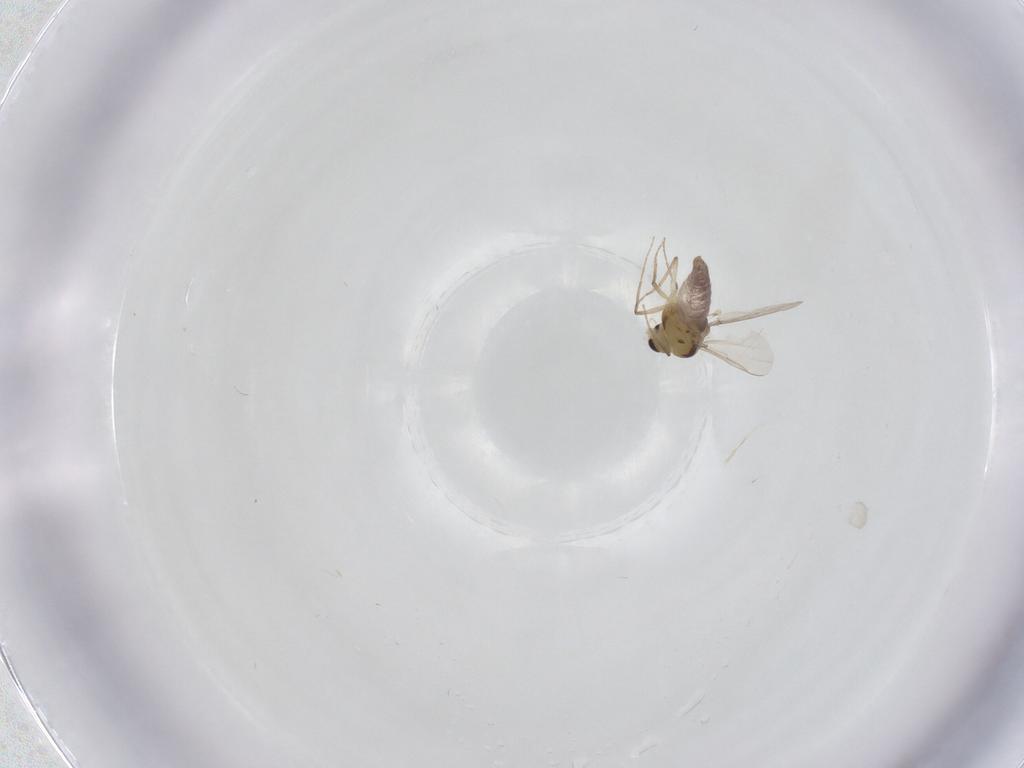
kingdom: Animalia
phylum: Arthropoda
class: Insecta
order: Diptera
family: Chironomidae
